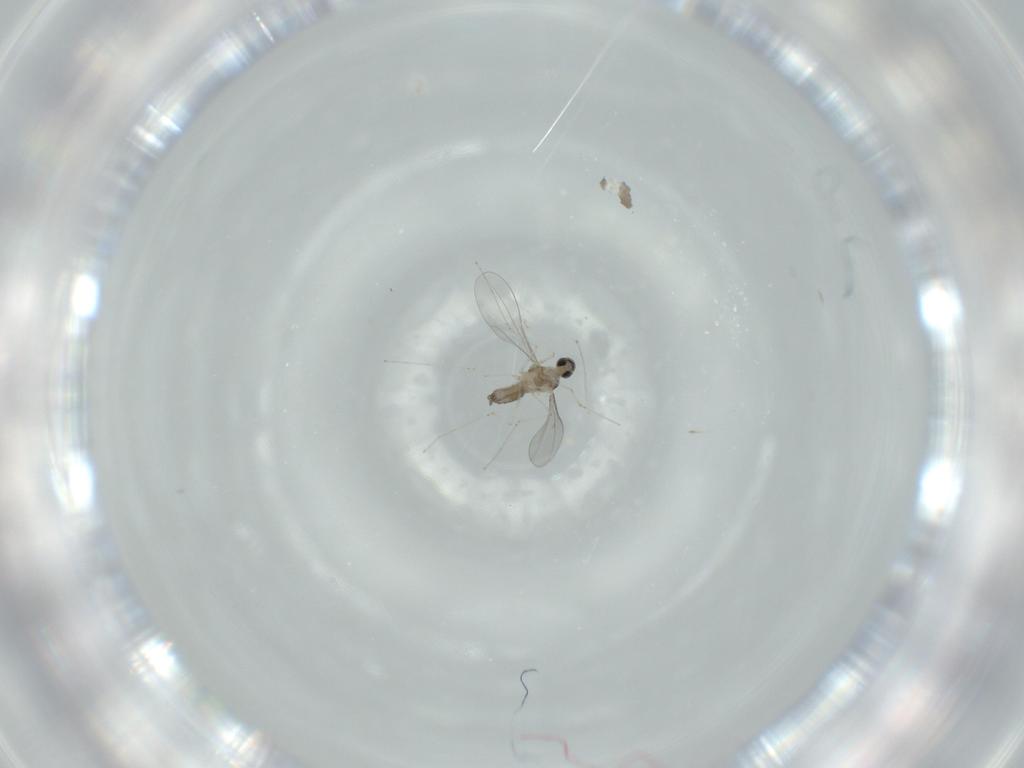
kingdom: Animalia
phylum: Arthropoda
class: Insecta
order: Diptera
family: Cecidomyiidae
